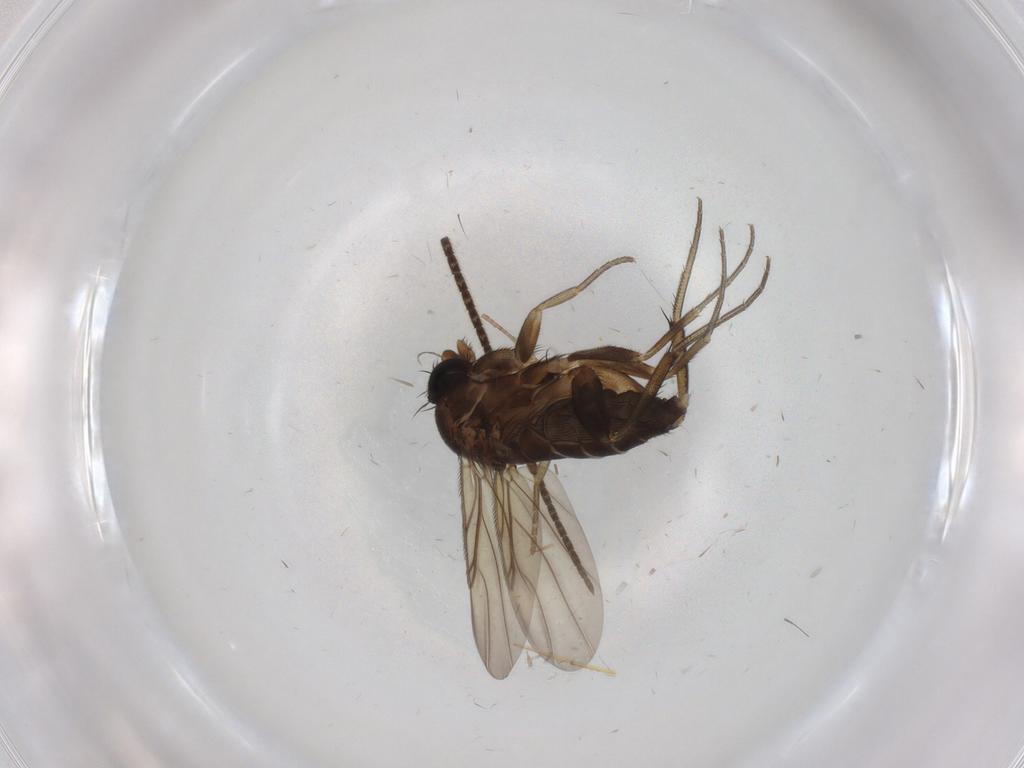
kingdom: Animalia
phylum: Arthropoda
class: Insecta
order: Diptera
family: Phoridae
